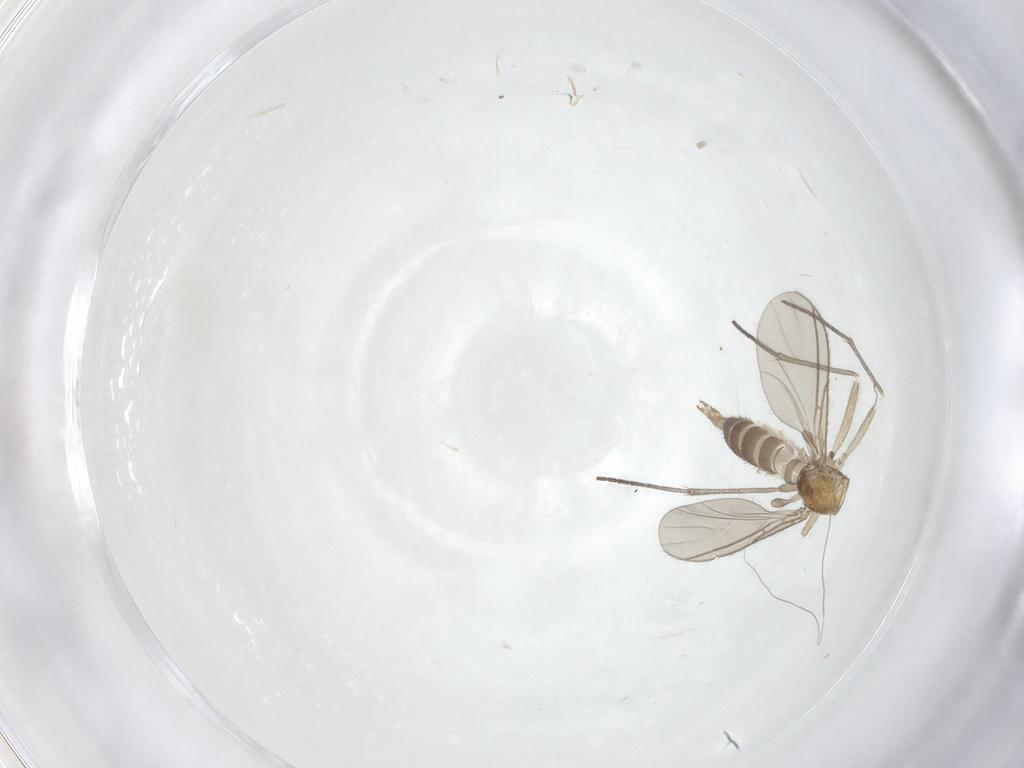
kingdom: Animalia
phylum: Arthropoda
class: Insecta
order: Diptera
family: Sciaridae
